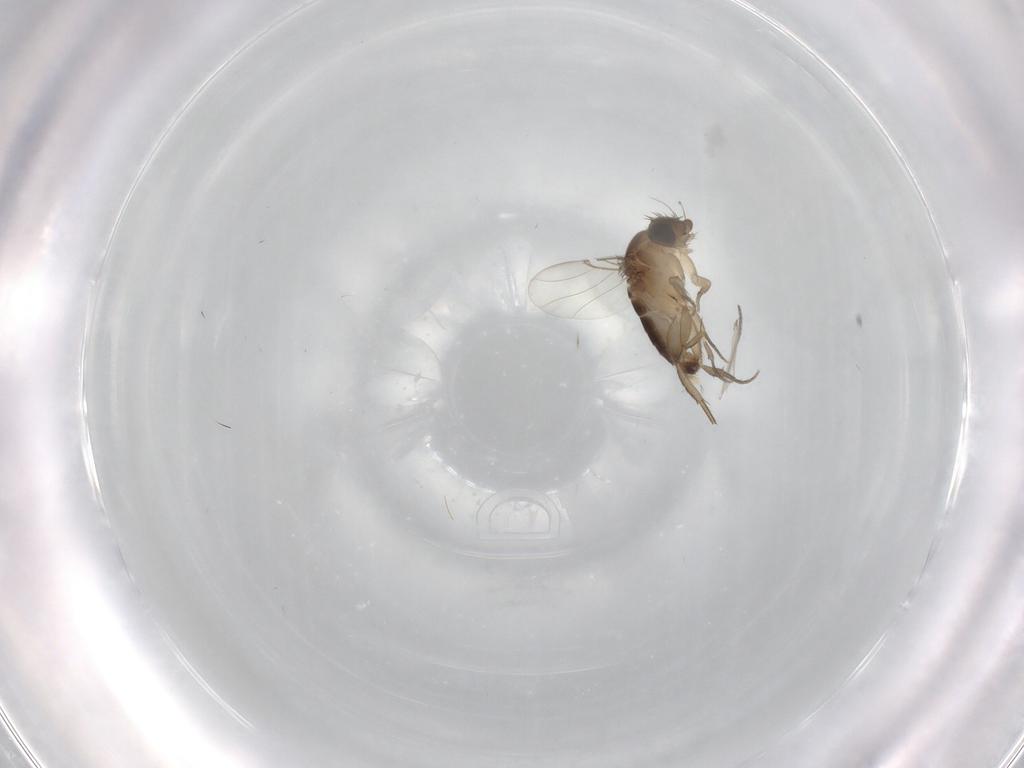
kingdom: Animalia
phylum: Arthropoda
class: Insecta
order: Diptera
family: Phoridae
